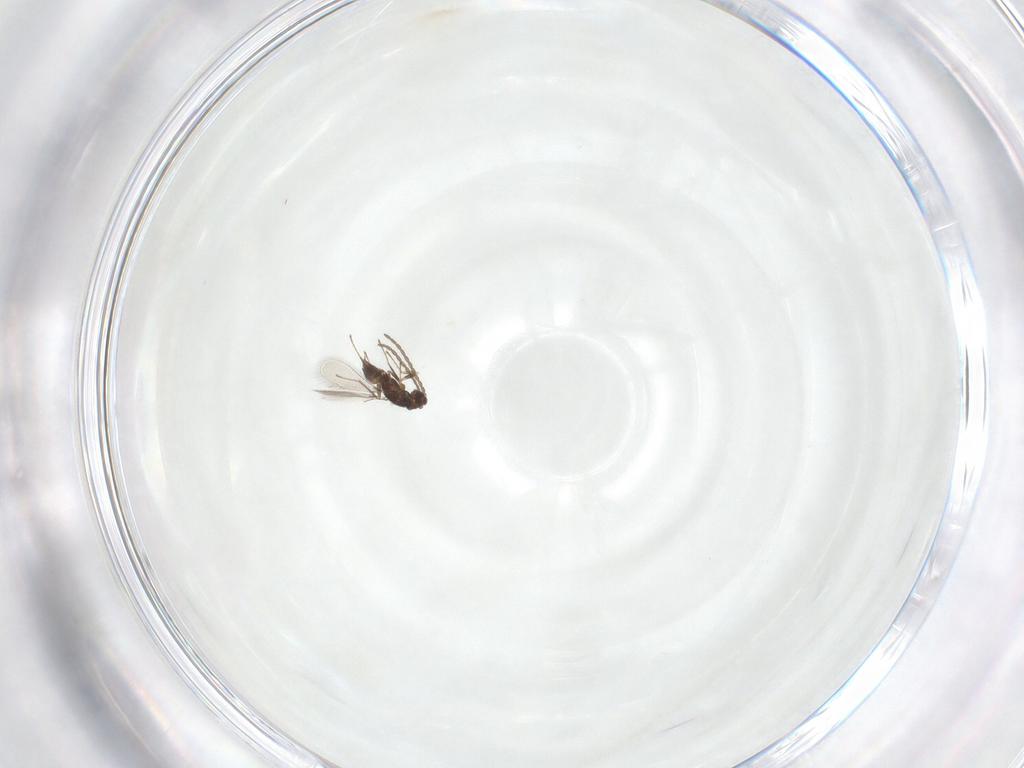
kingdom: Animalia
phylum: Arthropoda
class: Insecta
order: Hymenoptera
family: Mymaridae
